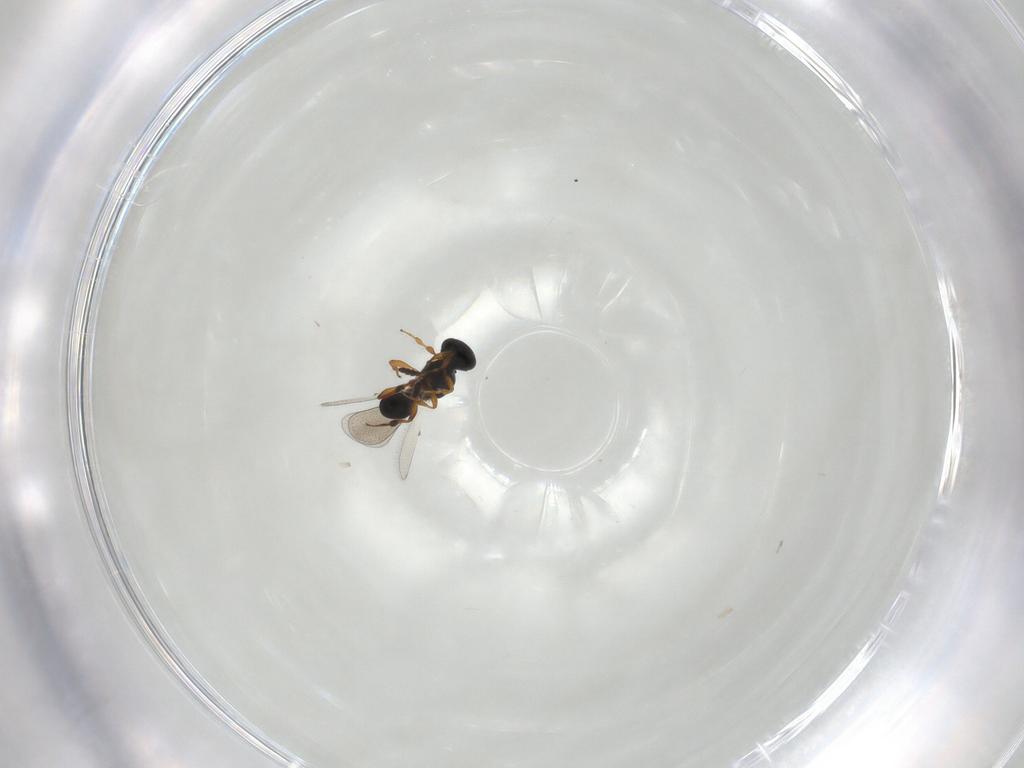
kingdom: Animalia
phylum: Arthropoda
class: Insecta
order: Hymenoptera
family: Platygastridae
